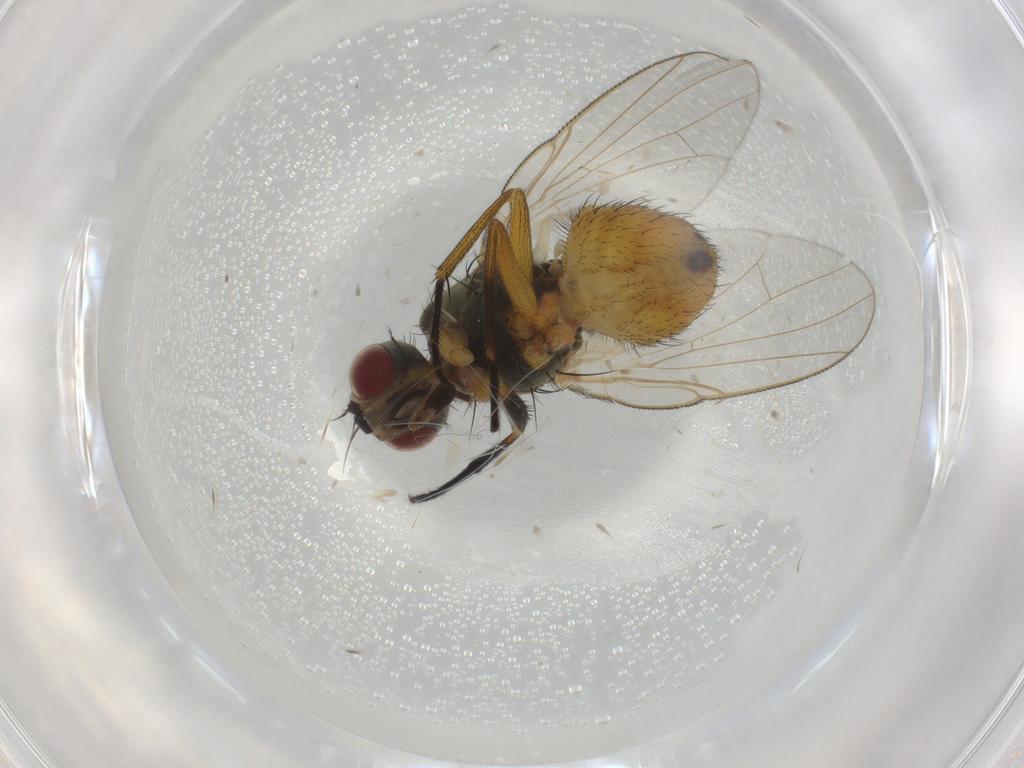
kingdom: Animalia
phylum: Arthropoda
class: Insecta
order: Diptera
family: Muscidae
